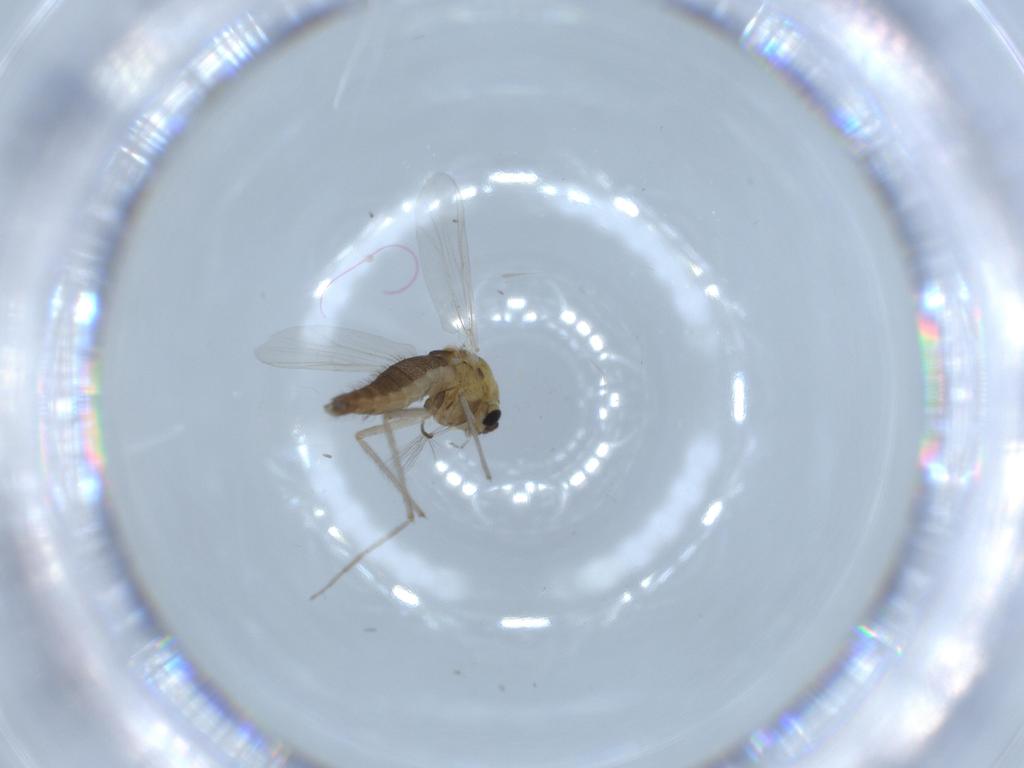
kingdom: Animalia
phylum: Arthropoda
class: Insecta
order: Diptera
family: Chironomidae
